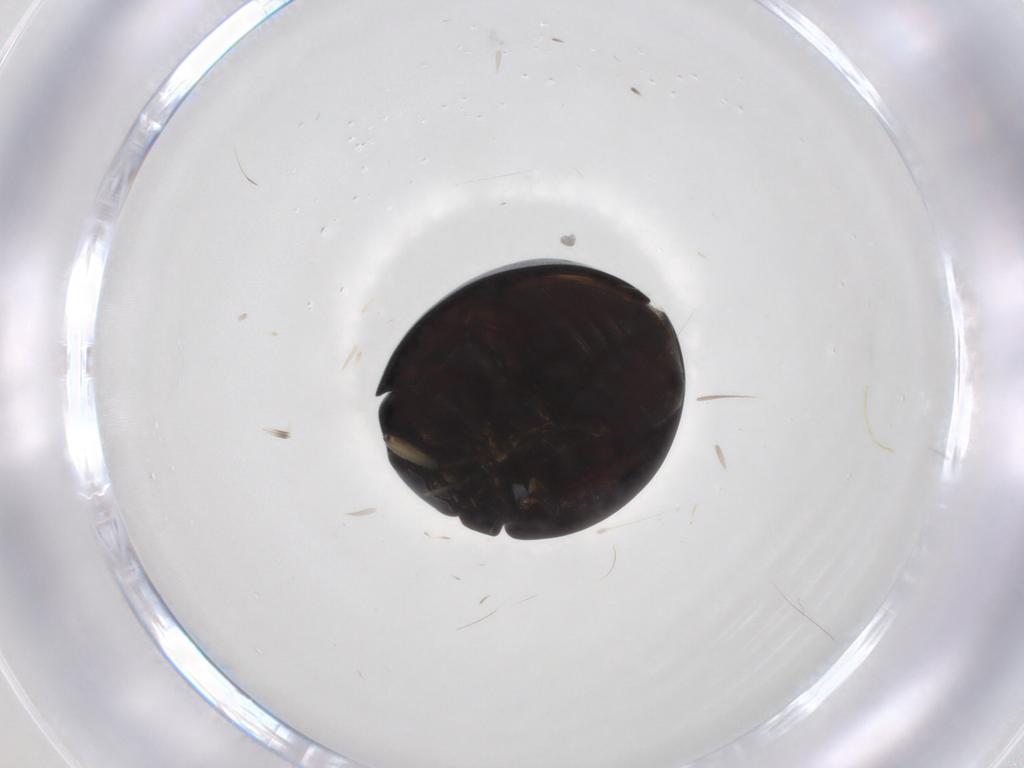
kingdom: Animalia
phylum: Arthropoda
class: Insecta
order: Coleoptera
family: Coccinellidae
